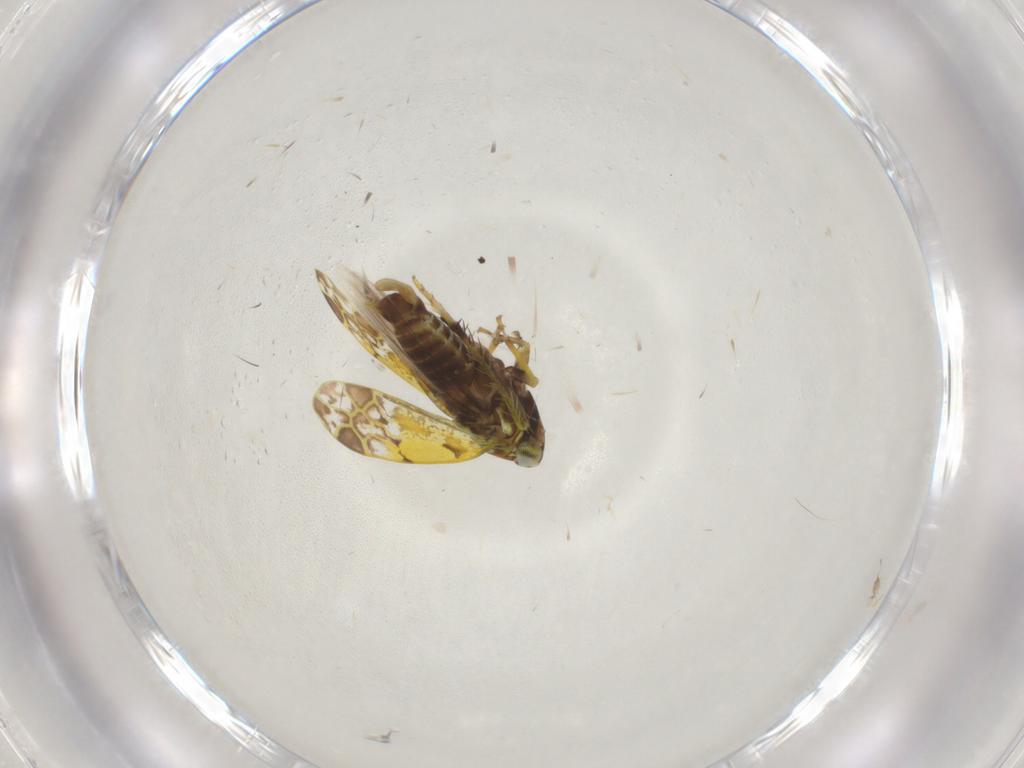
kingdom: Animalia
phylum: Arthropoda
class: Insecta
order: Hemiptera
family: Cicadellidae
